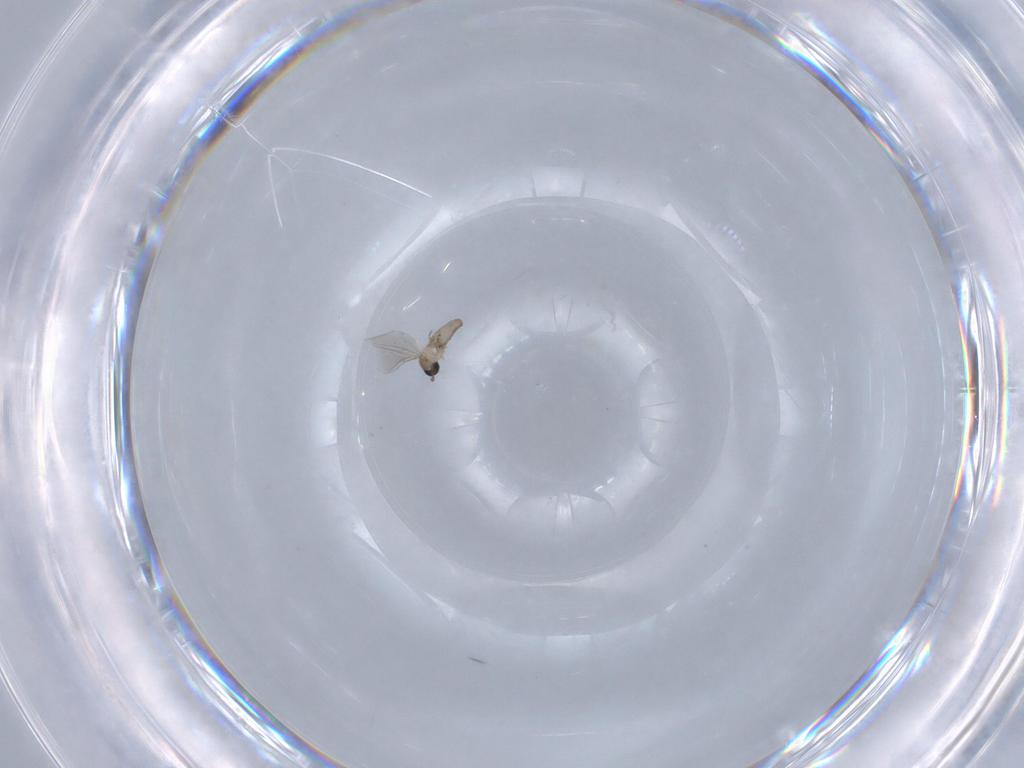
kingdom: Animalia
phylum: Arthropoda
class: Insecta
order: Diptera
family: Cecidomyiidae
